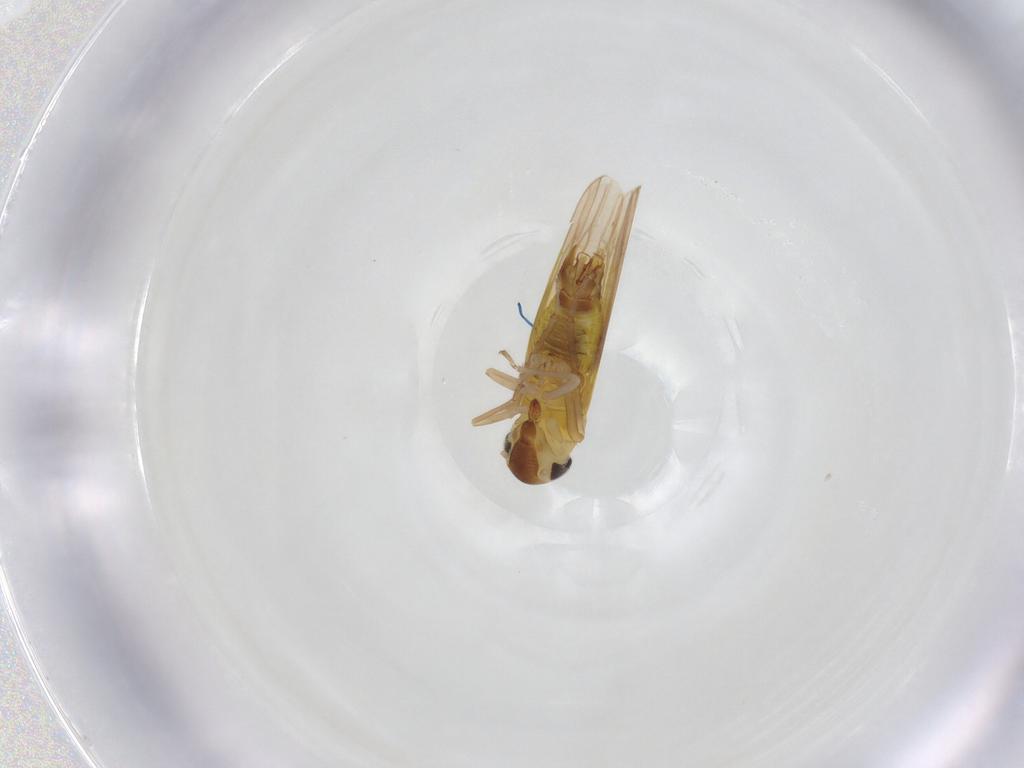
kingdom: Animalia
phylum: Arthropoda
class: Insecta
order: Hemiptera
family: Cicadellidae
